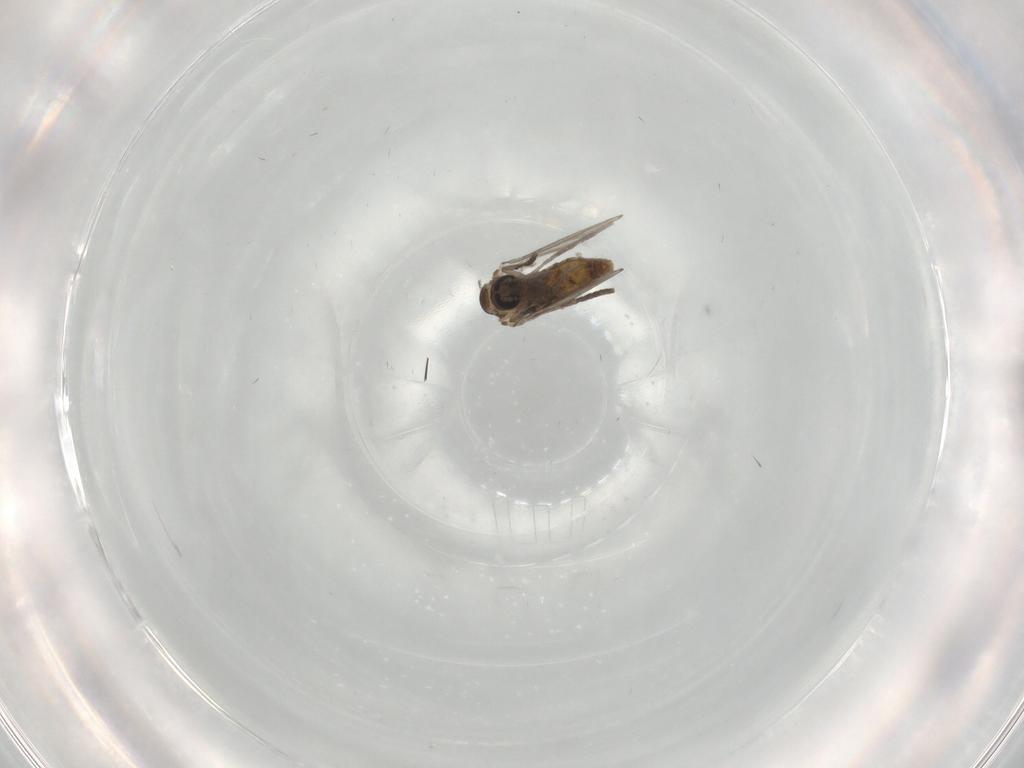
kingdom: Animalia
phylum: Arthropoda
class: Insecta
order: Diptera
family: Psychodidae
